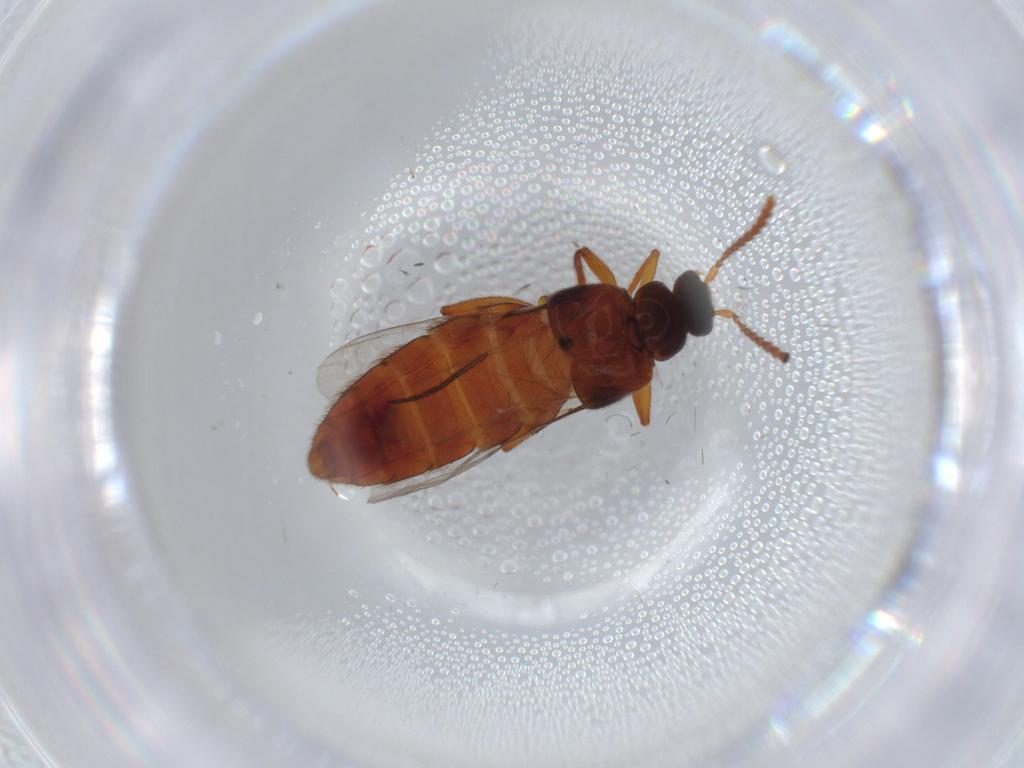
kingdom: Animalia
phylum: Arthropoda
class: Insecta
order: Coleoptera
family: Staphylinidae
